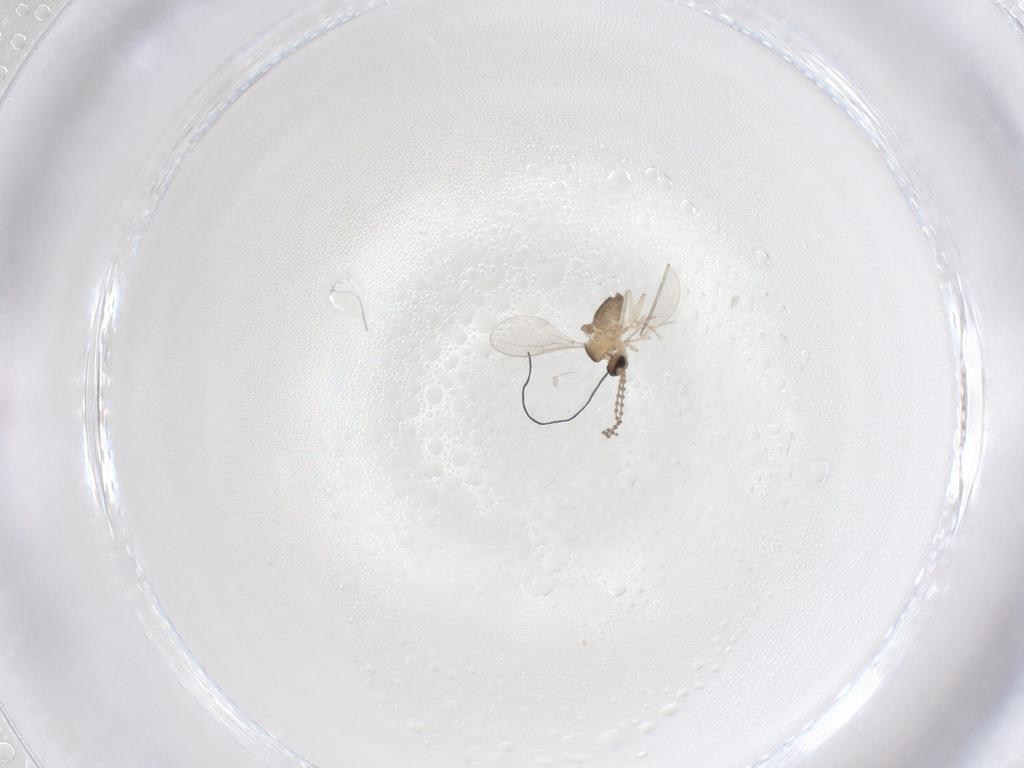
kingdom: Animalia
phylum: Arthropoda
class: Insecta
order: Diptera
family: Cecidomyiidae
